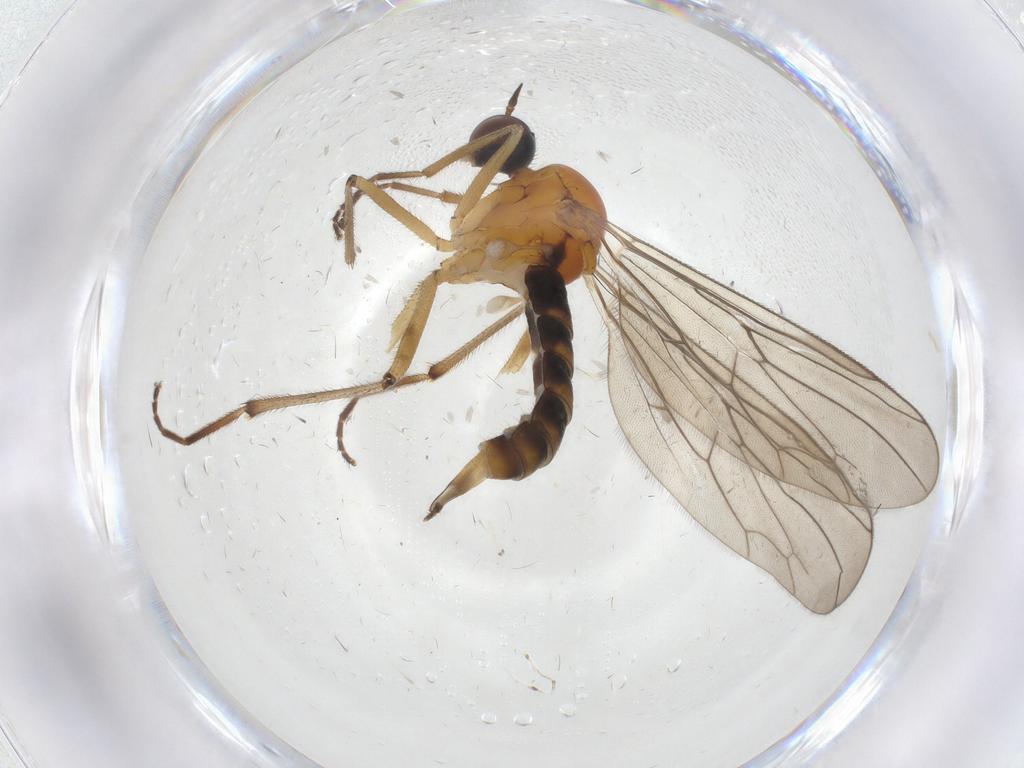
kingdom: Animalia
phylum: Arthropoda
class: Insecta
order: Diptera
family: Hybotidae
